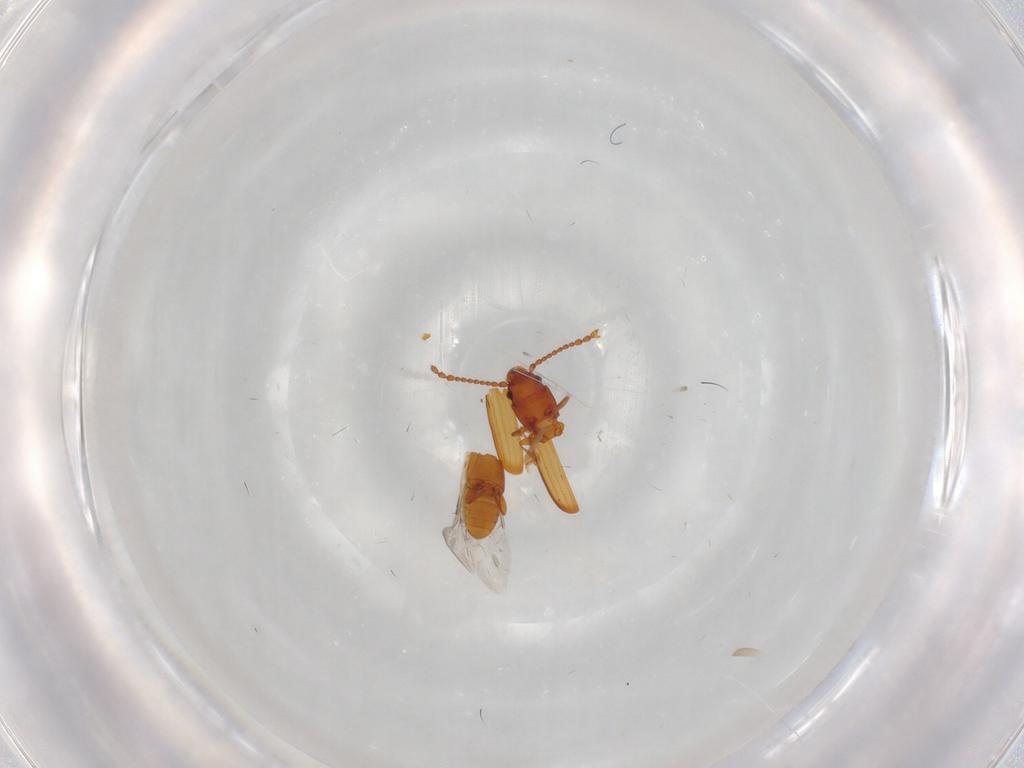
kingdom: Animalia
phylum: Arthropoda
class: Insecta
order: Coleoptera
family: Laemophloeidae
